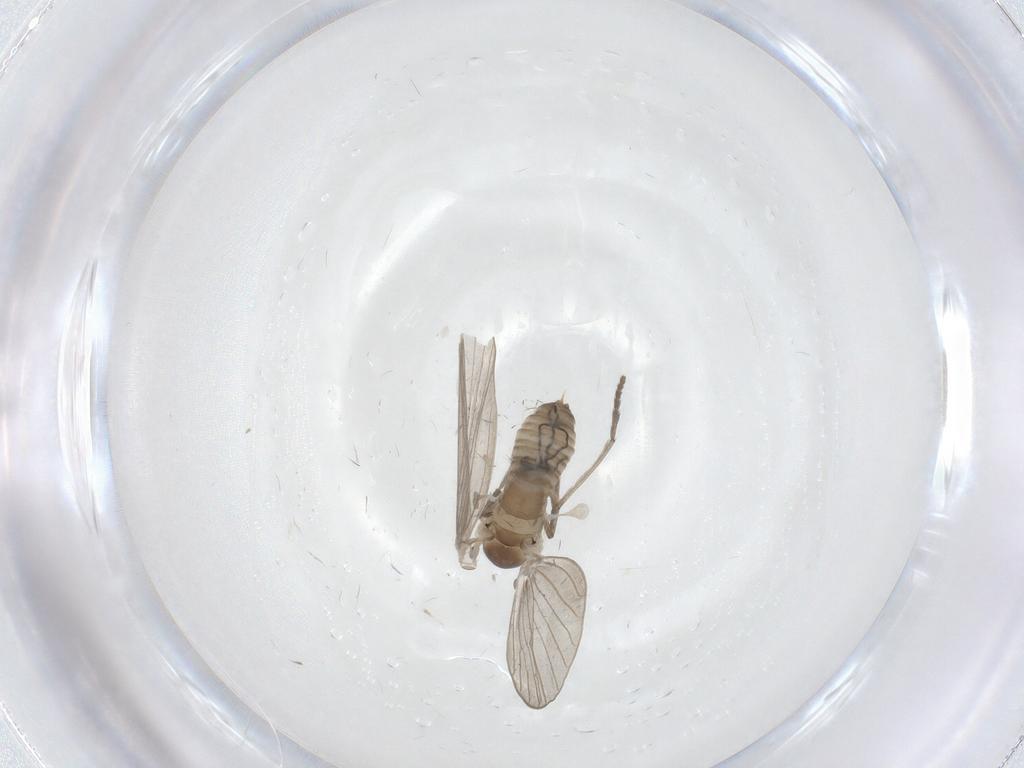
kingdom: Animalia
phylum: Arthropoda
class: Insecta
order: Diptera
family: Psychodidae
